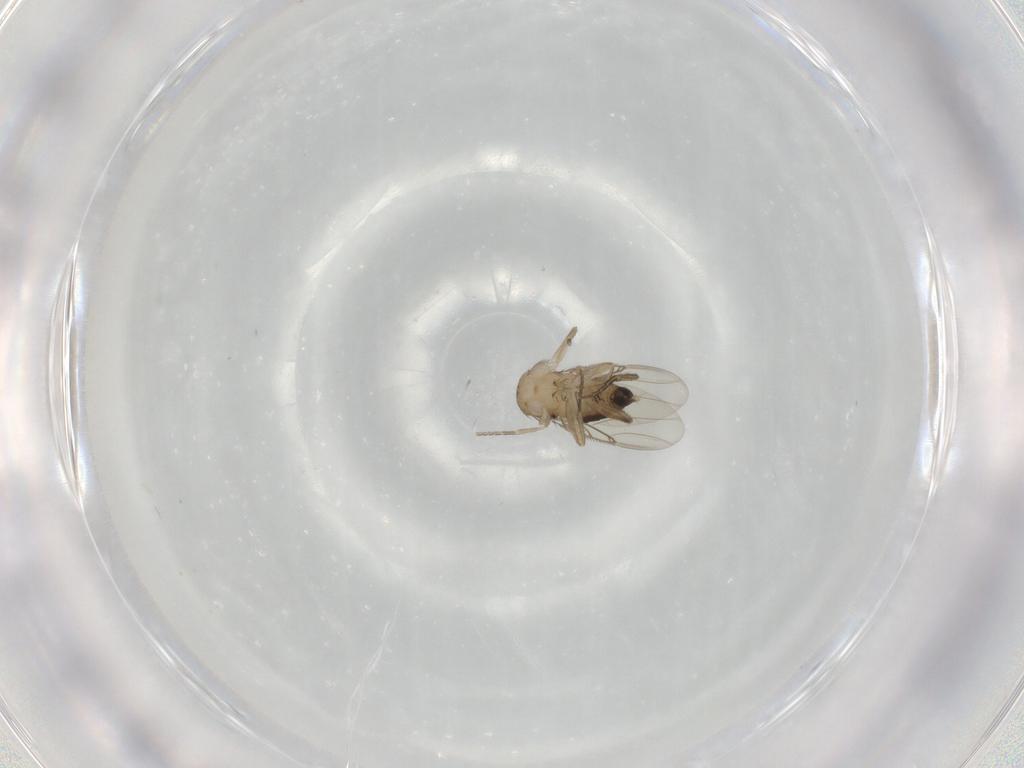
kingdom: Animalia
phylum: Arthropoda
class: Insecta
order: Diptera
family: Psychodidae
